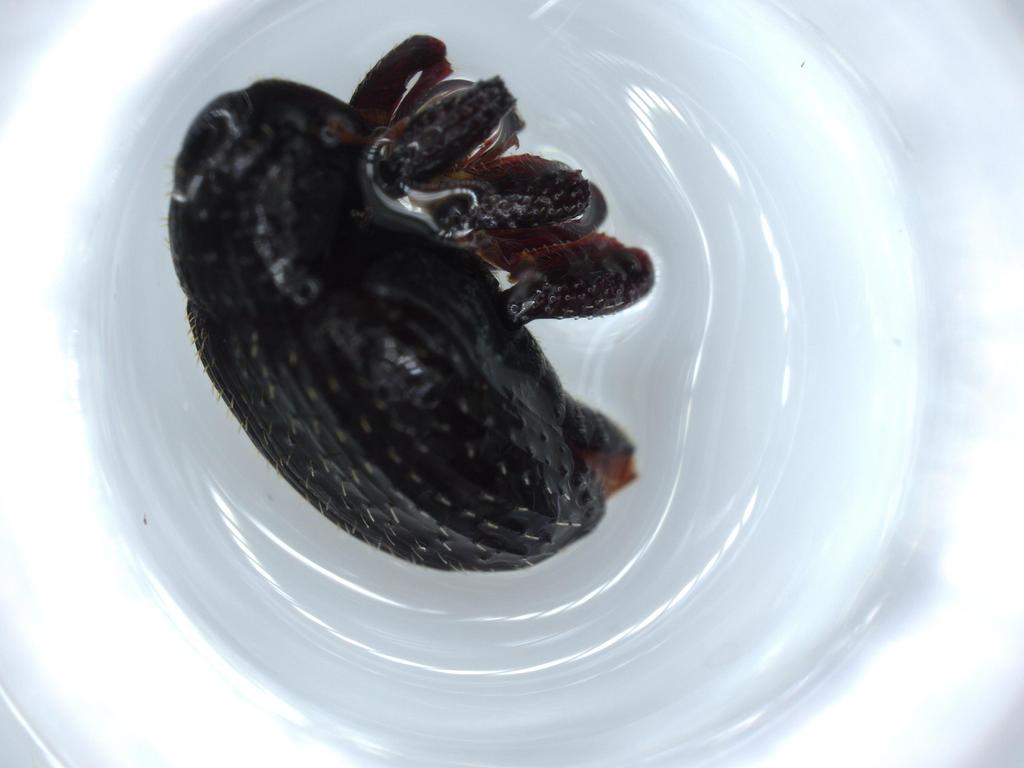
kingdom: Animalia
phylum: Arthropoda
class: Insecta
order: Coleoptera
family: Curculionidae
